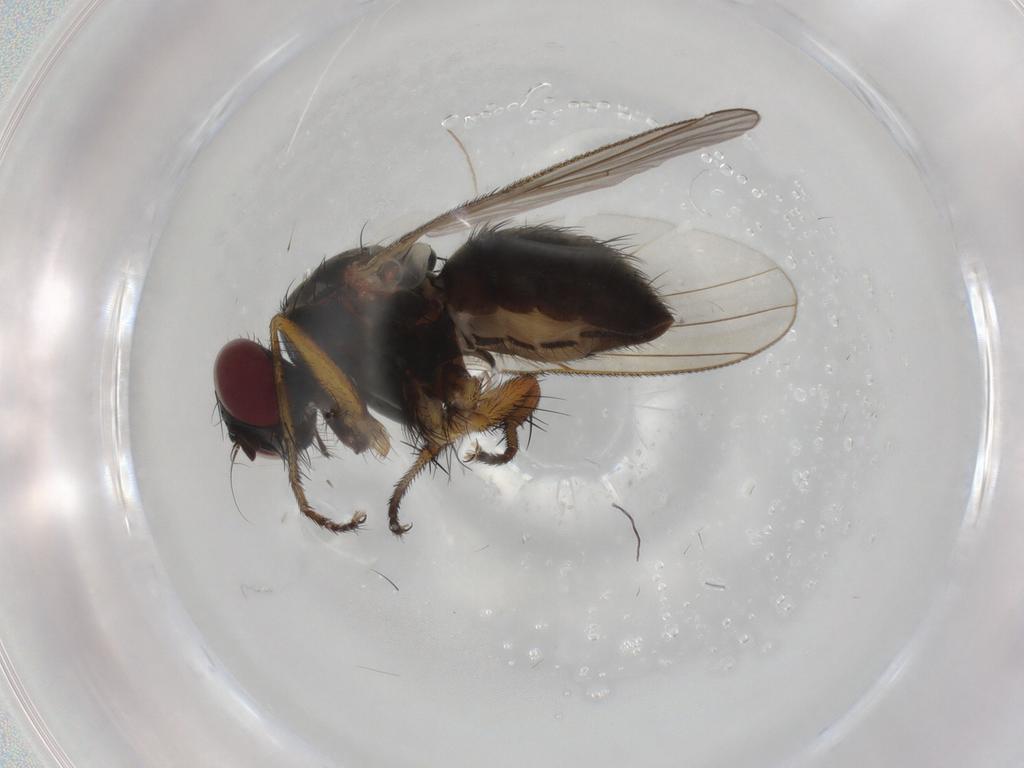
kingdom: Animalia
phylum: Arthropoda
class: Insecta
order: Diptera
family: Muscidae
